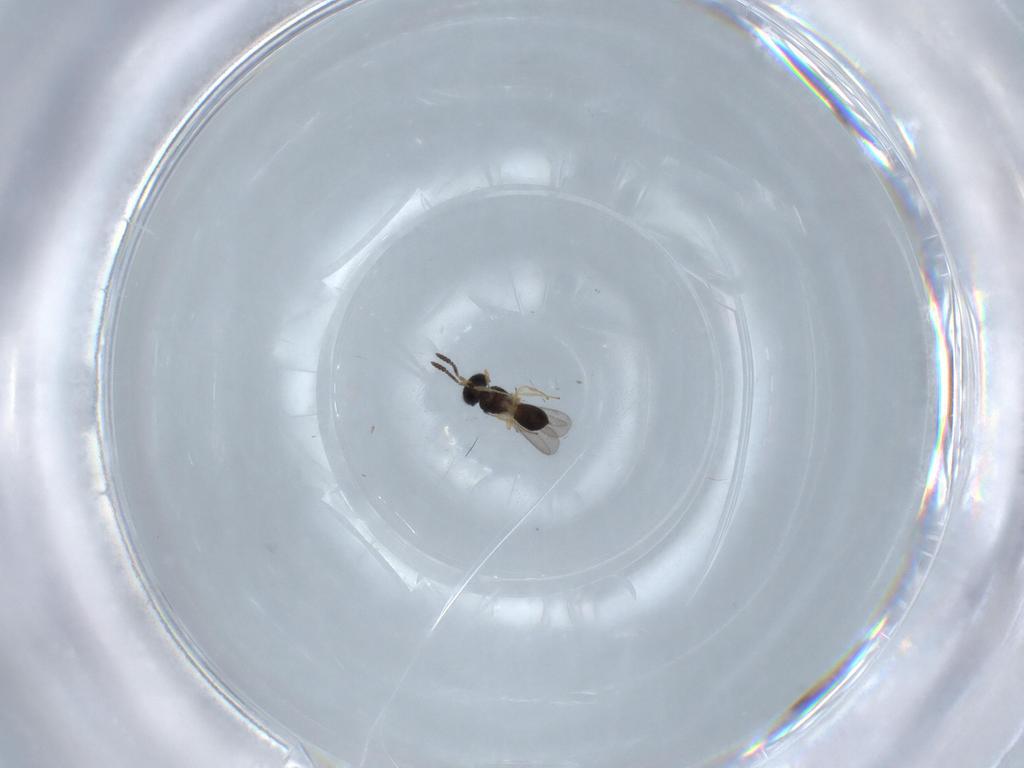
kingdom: Animalia
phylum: Arthropoda
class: Insecta
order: Hymenoptera
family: Scelionidae
